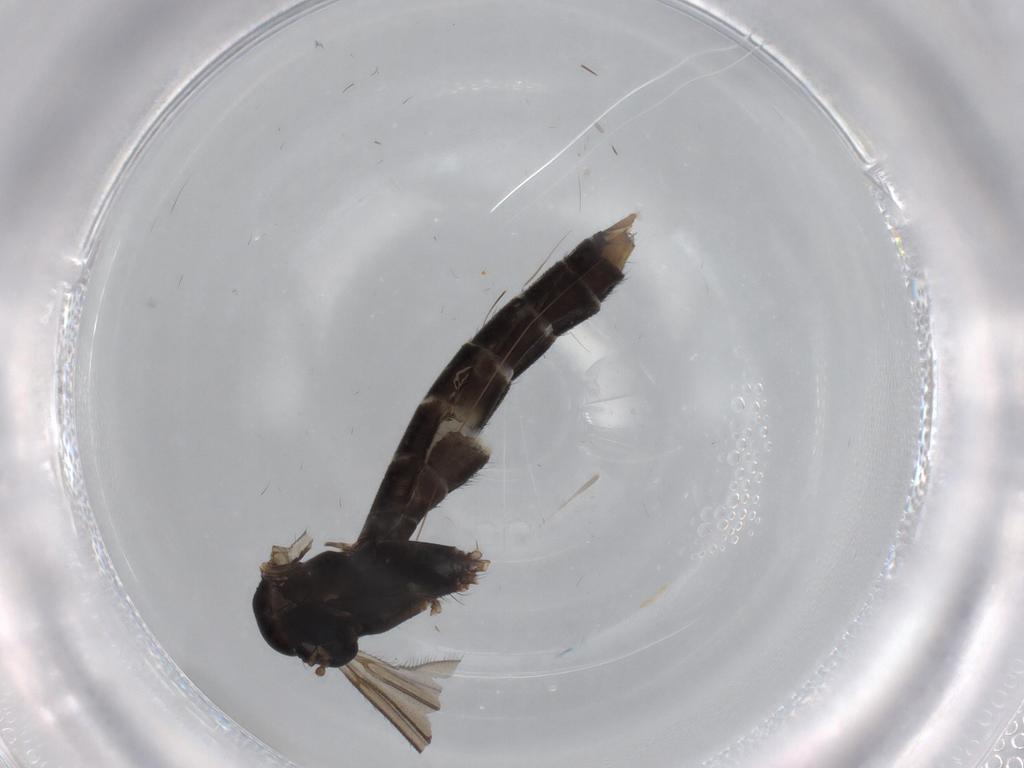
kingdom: Animalia
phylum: Arthropoda
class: Insecta
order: Diptera
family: Ditomyiidae
